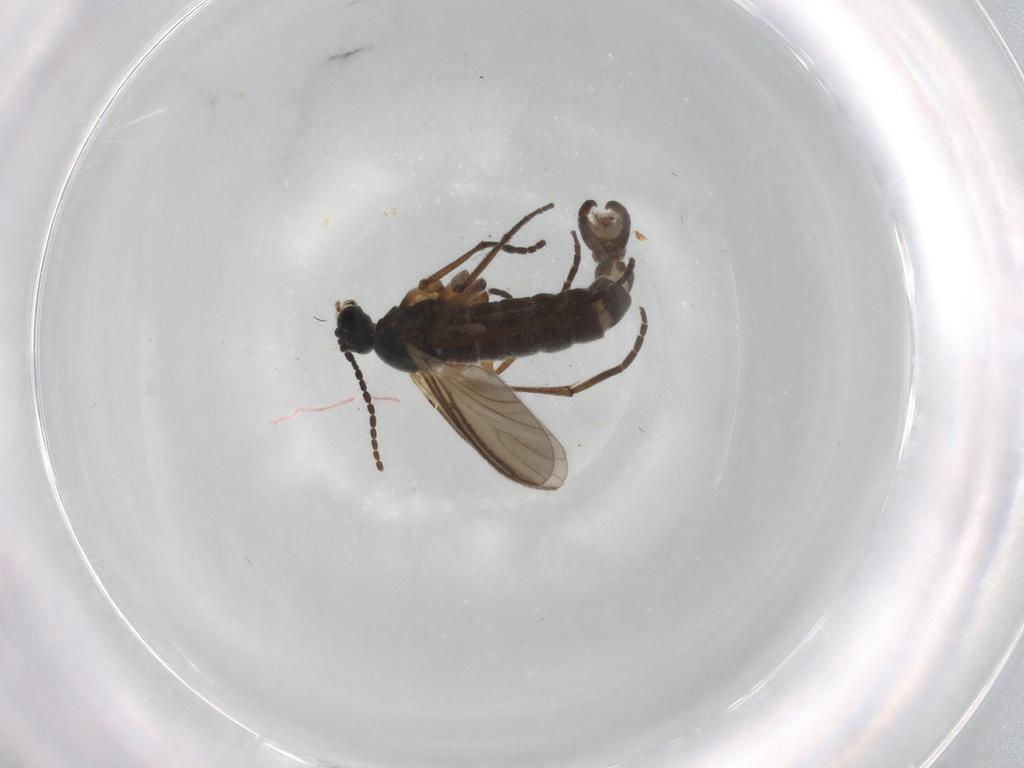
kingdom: Animalia
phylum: Arthropoda
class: Insecta
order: Diptera
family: Sciaridae
